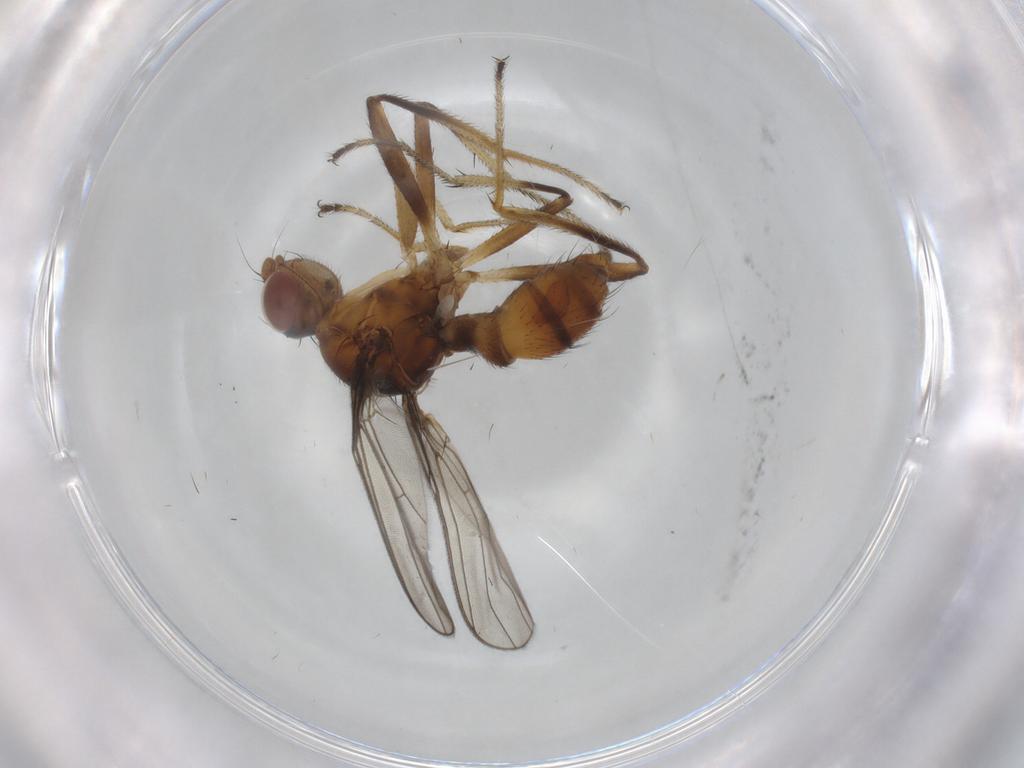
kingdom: Animalia
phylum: Arthropoda
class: Insecta
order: Diptera
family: Sepsidae
